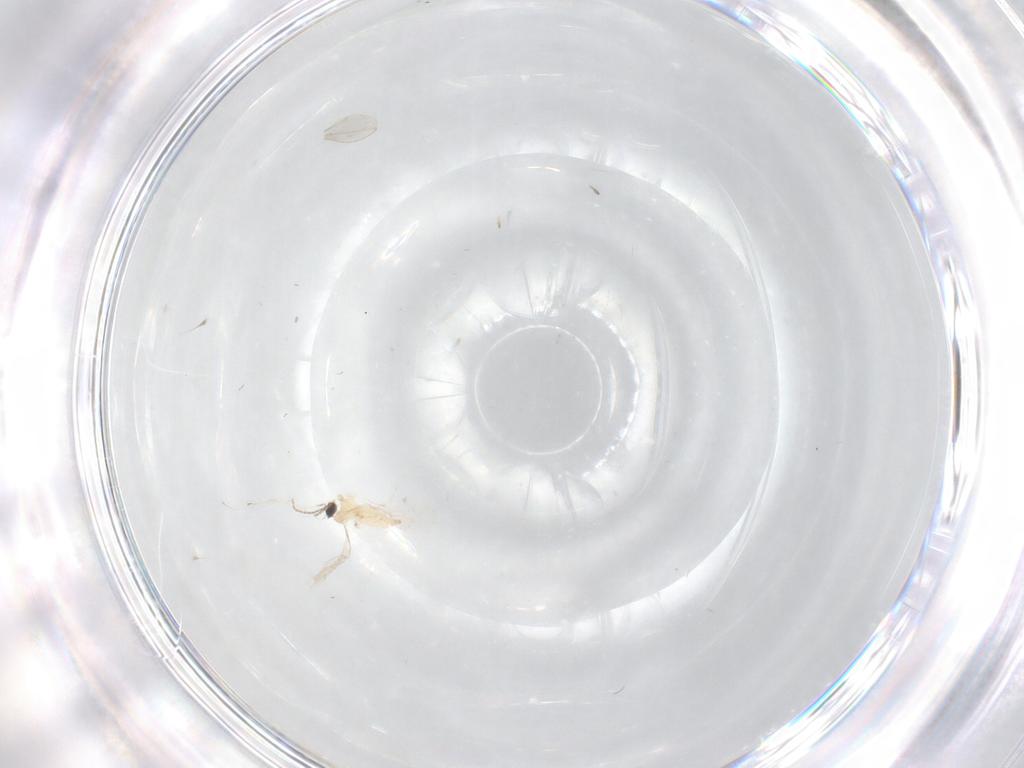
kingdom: Animalia
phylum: Arthropoda
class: Insecta
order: Diptera
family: Cecidomyiidae
